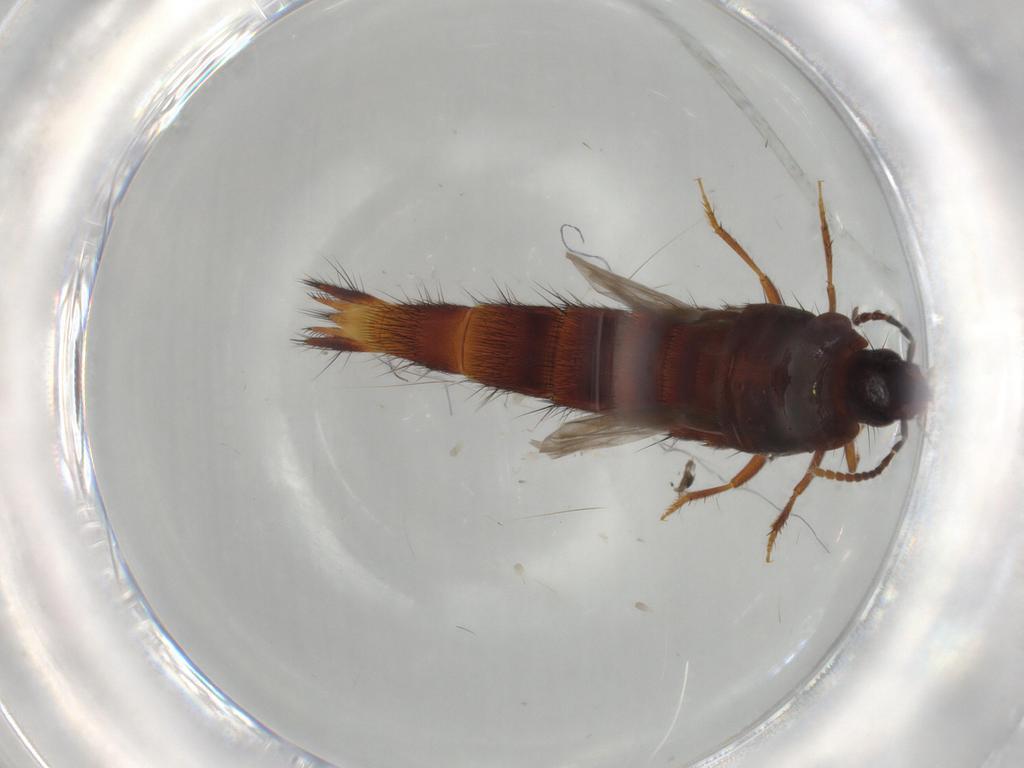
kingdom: Animalia
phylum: Arthropoda
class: Insecta
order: Coleoptera
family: Staphylinidae
